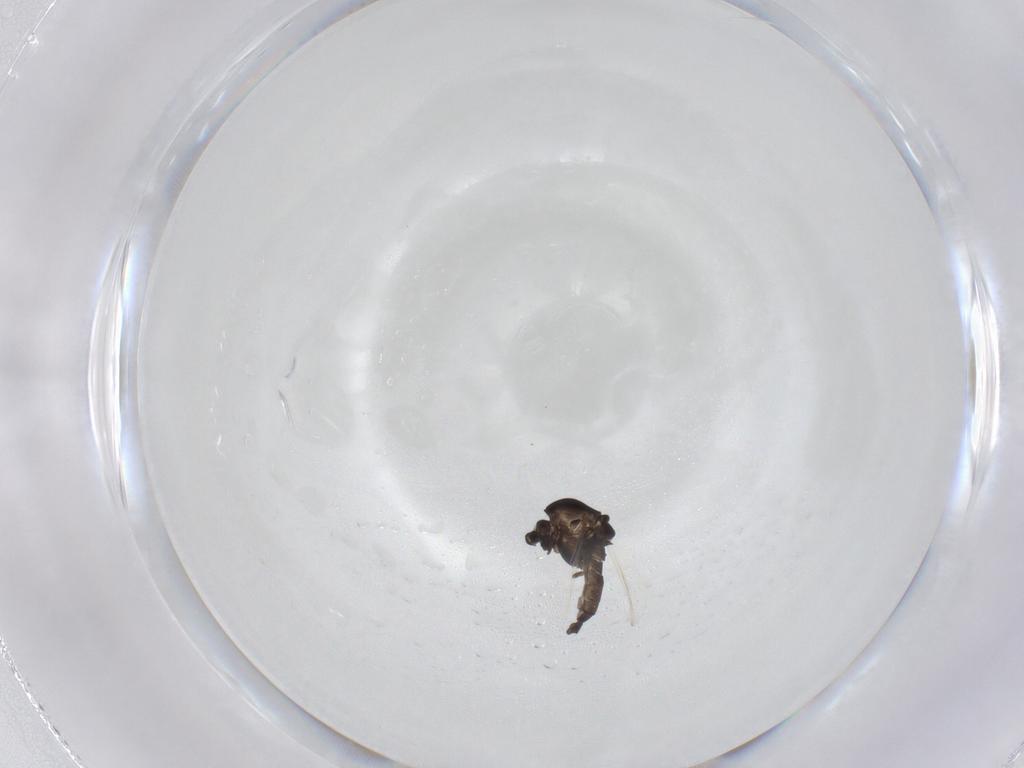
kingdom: Animalia
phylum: Arthropoda
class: Insecta
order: Diptera
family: Chironomidae
